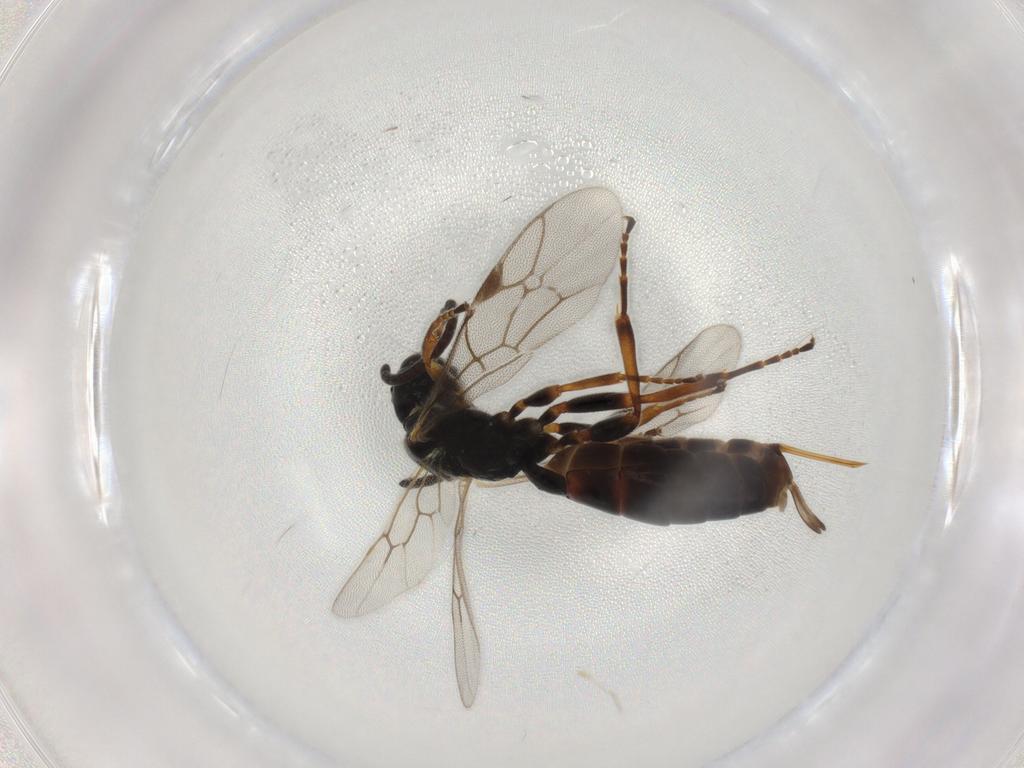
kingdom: Animalia
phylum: Arthropoda
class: Insecta
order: Hymenoptera
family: Ichneumonidae
